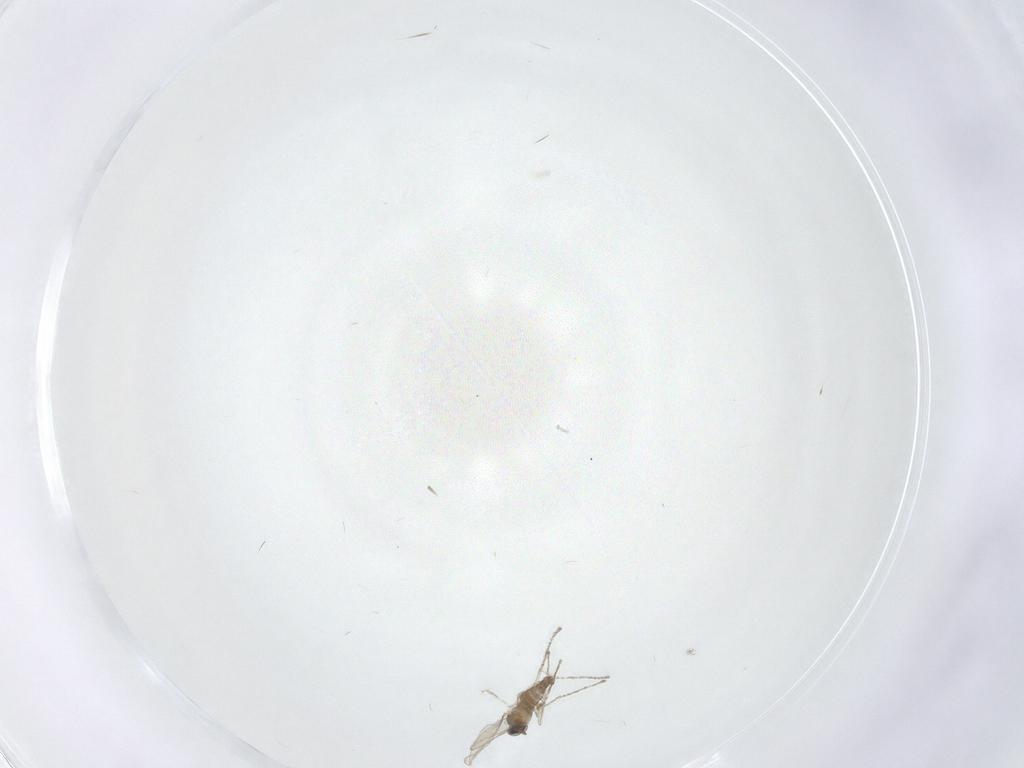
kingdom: Animalia
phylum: Arthropoda
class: Insecta
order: Diptera
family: Cecidomyiidae
